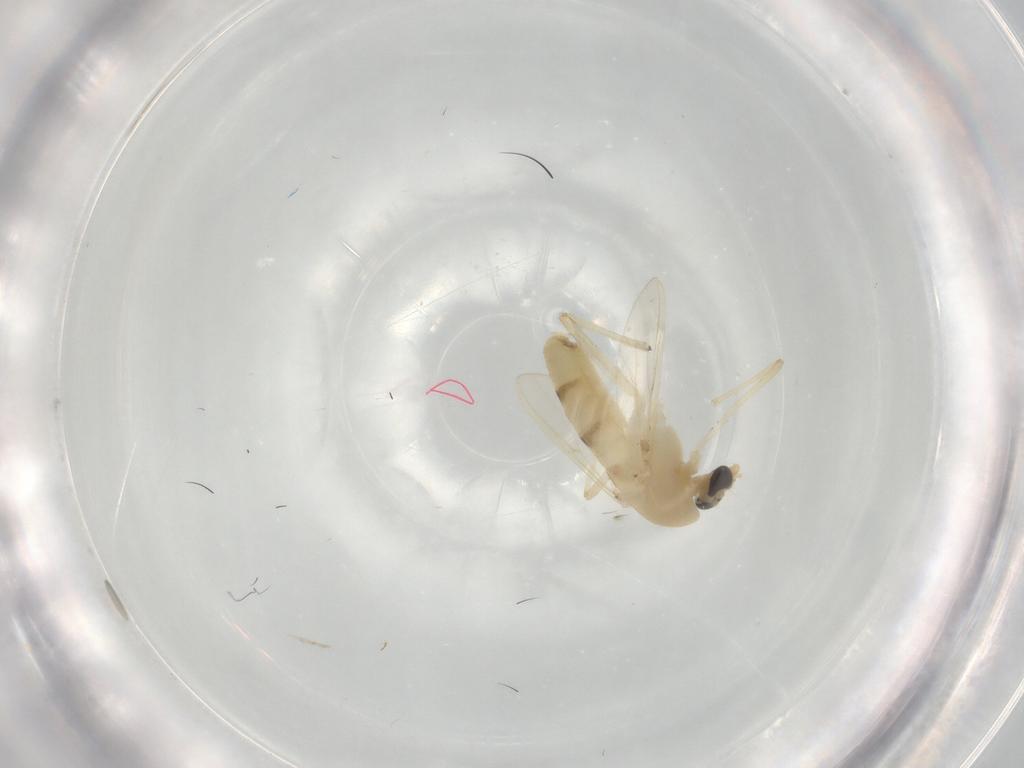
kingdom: Animalia
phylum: Arthropoda
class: Insecta
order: Diptera
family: Chironomidae
